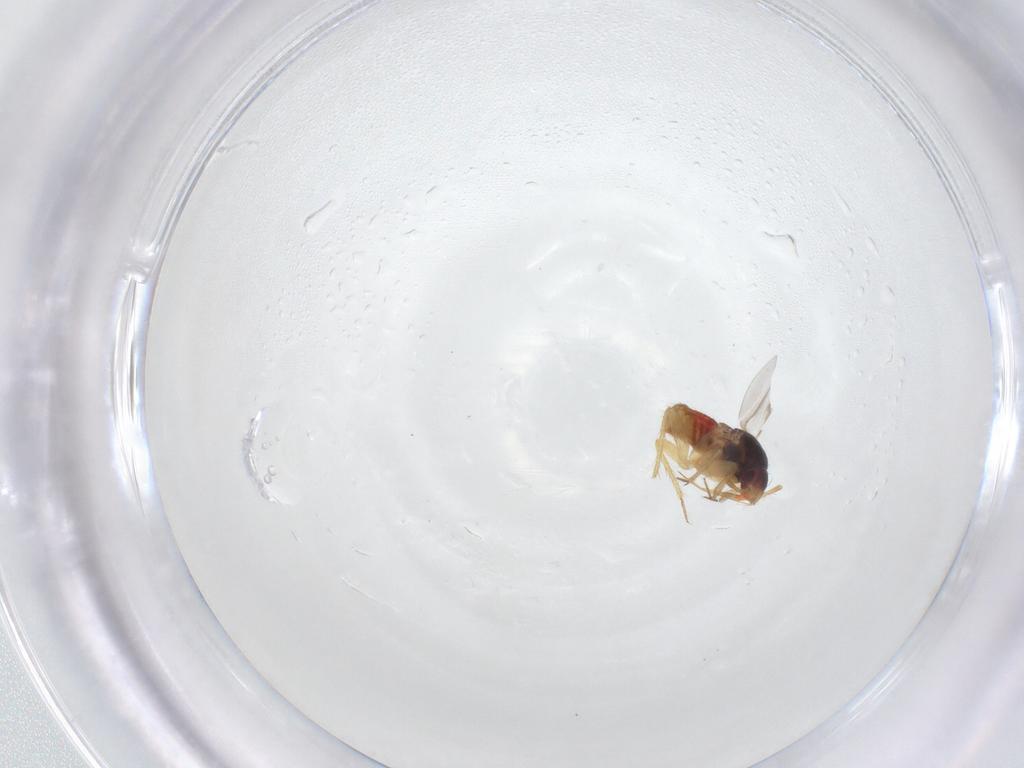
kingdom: Animalia
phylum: Arthropoda
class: Insecta
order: Hemiptera
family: Ceratocombidae
